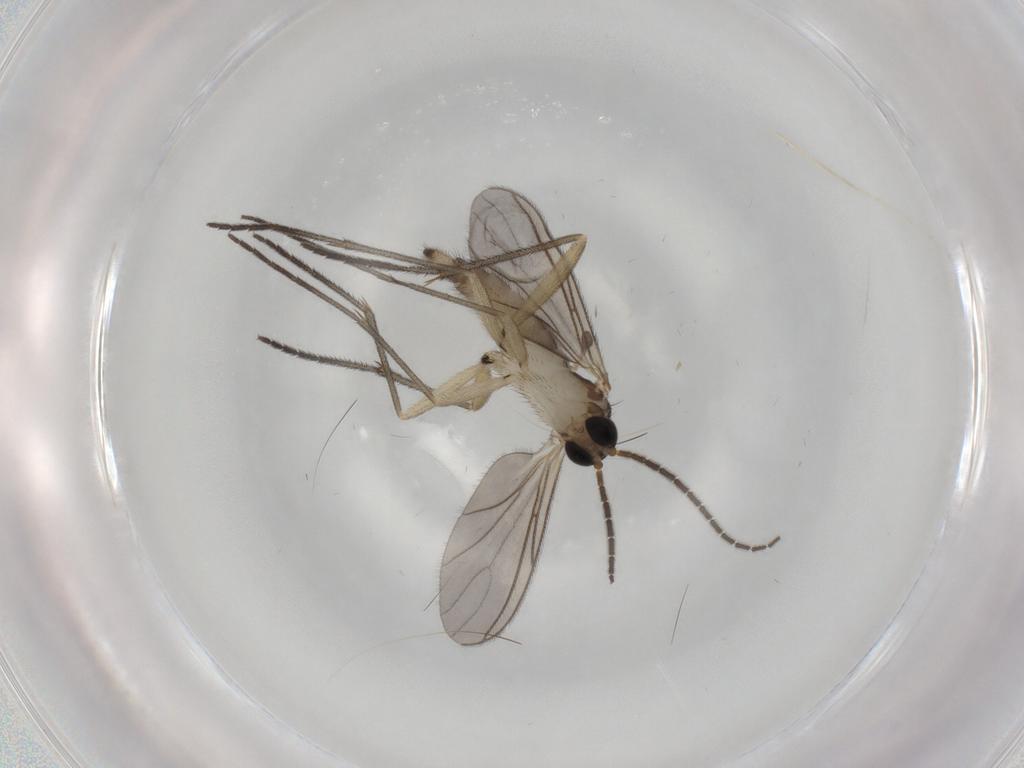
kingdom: Animalia
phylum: Arthropoda
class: Insecta
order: Diptera
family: Sciaridae
